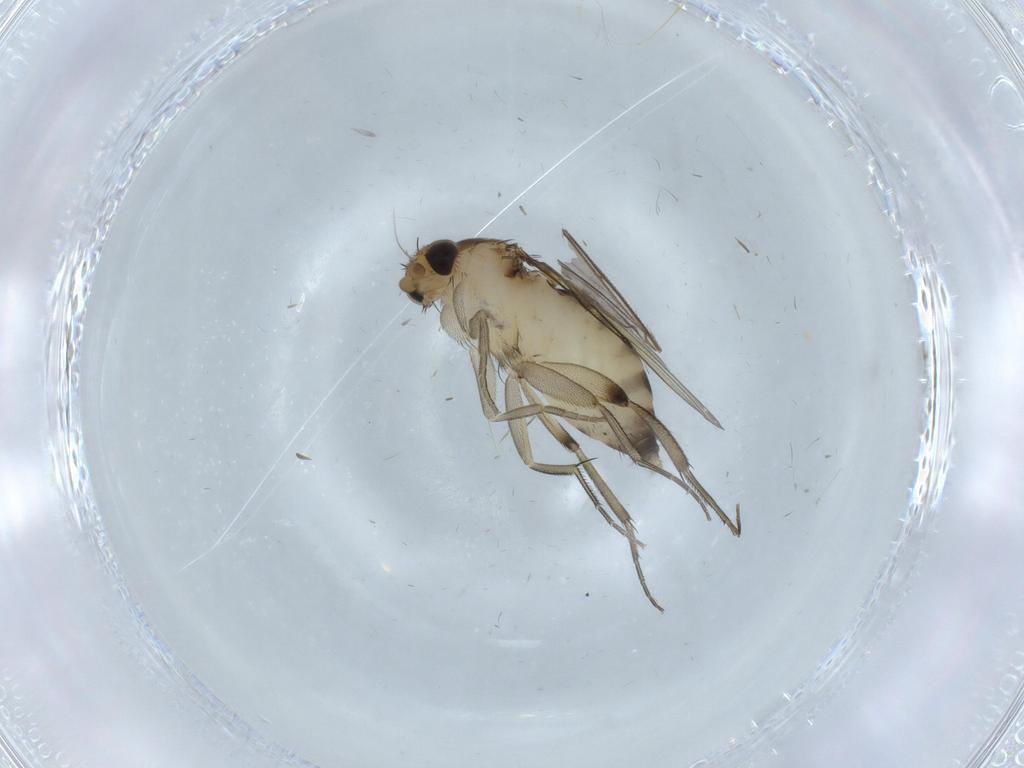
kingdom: Animalia
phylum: Arthropoda
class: Insecta
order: Diptera
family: Phoridae
